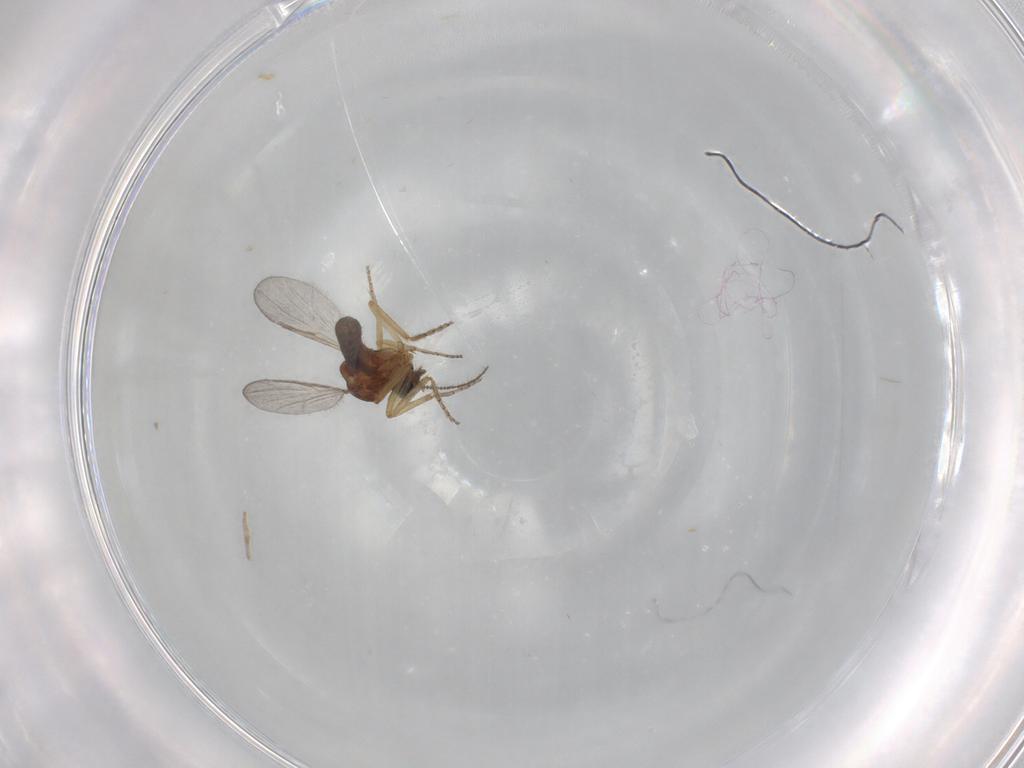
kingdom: Animalia
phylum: Arthropoda
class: Insecta
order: Diptera
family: Ceratopogonidae
